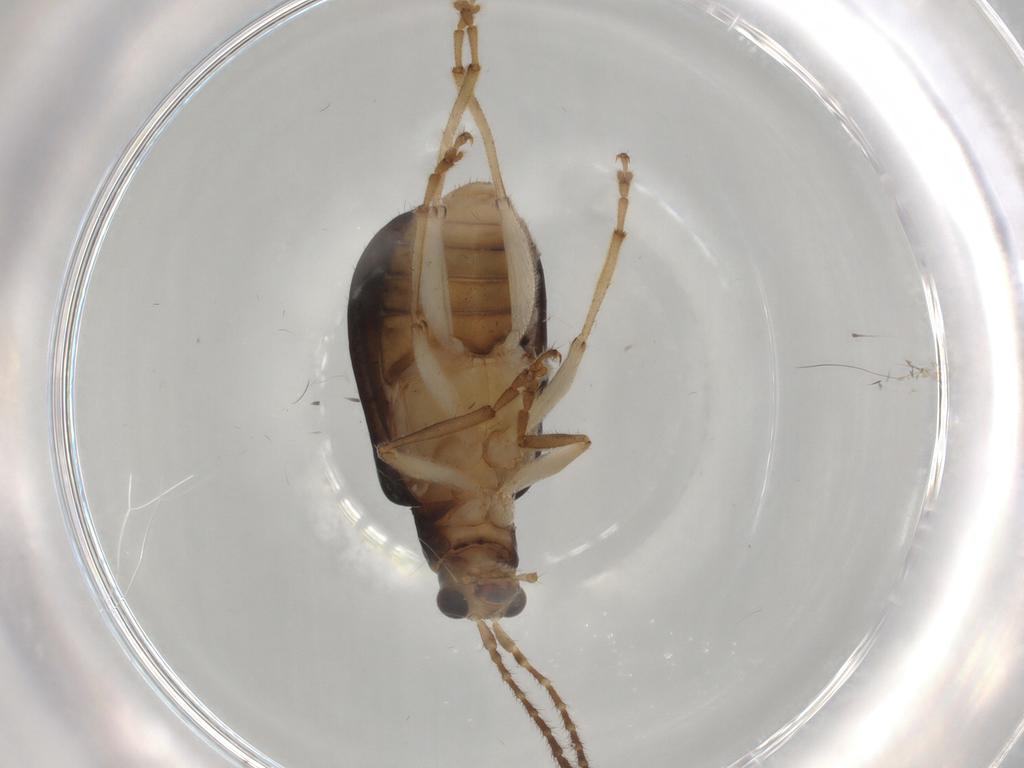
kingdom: Animalia
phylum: Arthropoda
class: Insecta
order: Coleoptera
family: Chrysomelidae
